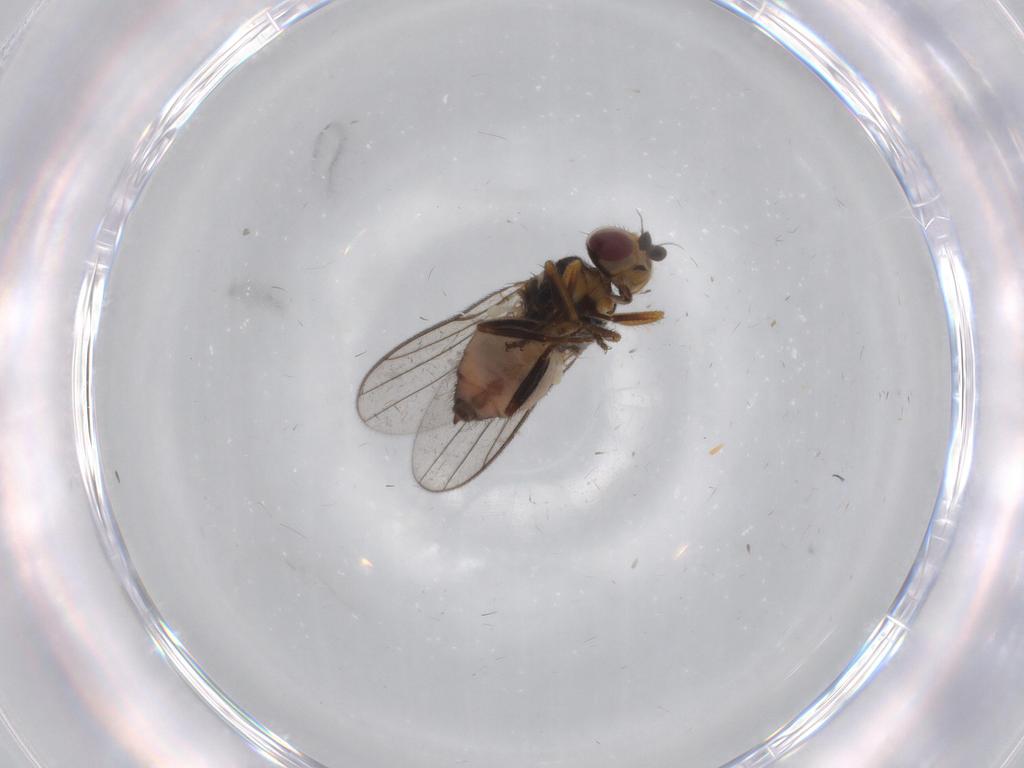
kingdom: Animalia
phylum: Arthropoda
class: Insecta
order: Diptera
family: Chloropidae
